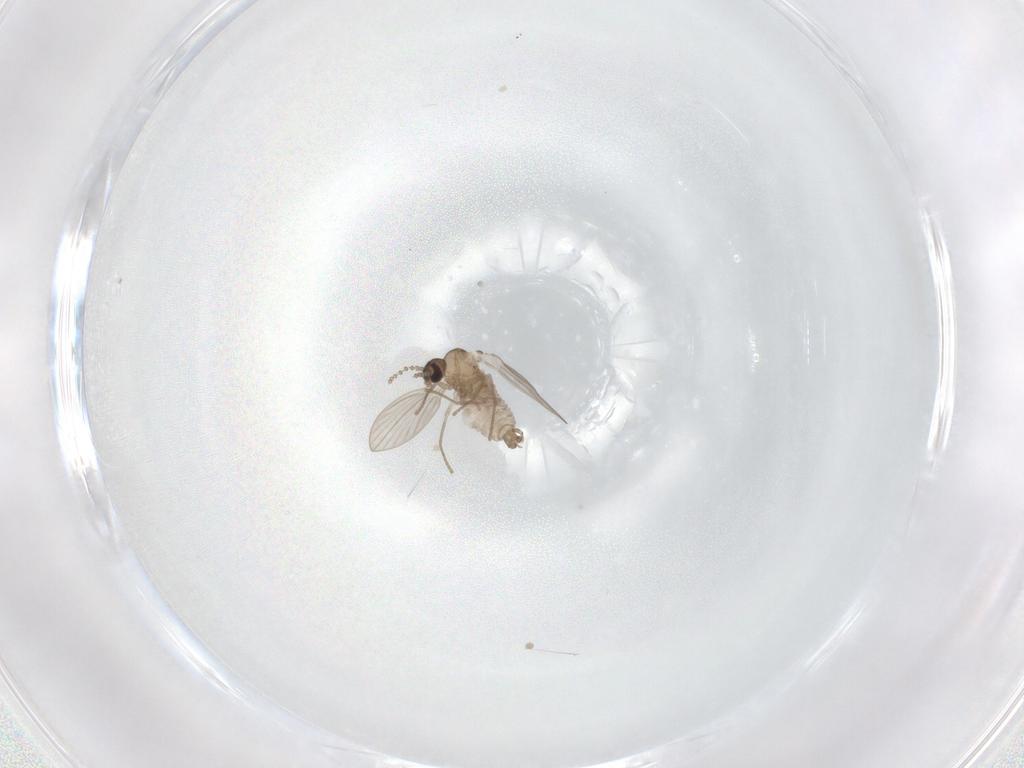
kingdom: Animalia
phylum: Arthropoda
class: Insecta
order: Diptera
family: Psychodidae
